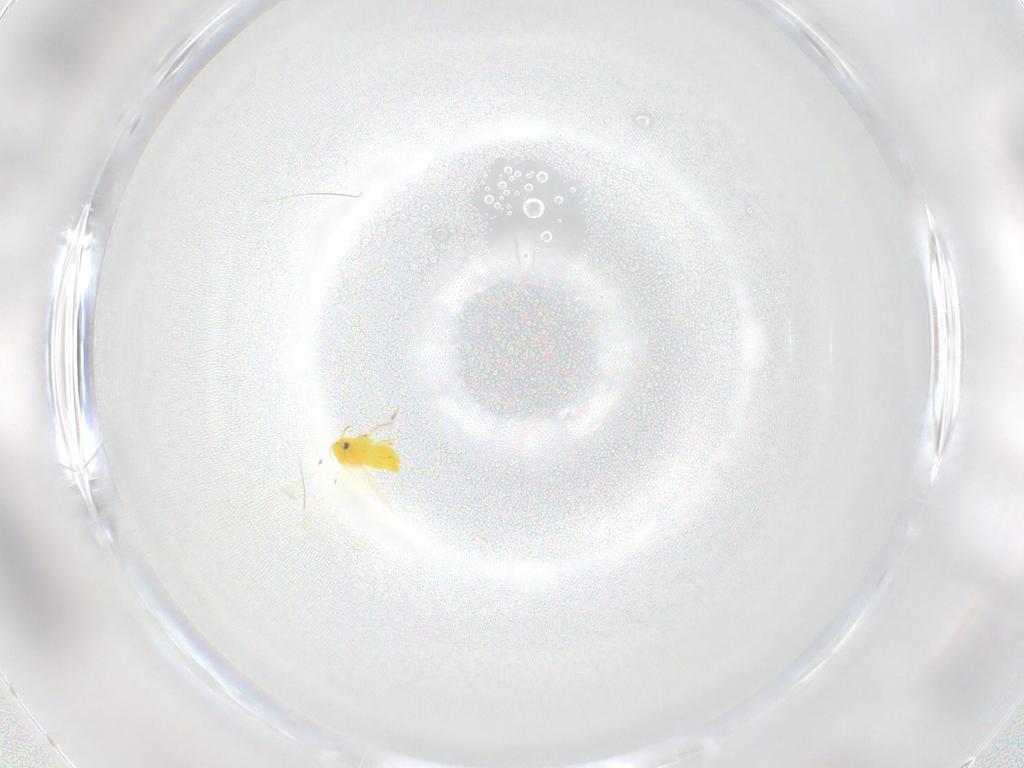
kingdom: Animalia
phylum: Arthropoda
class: Insecta
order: Hemiptera
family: Aleyrodidae
